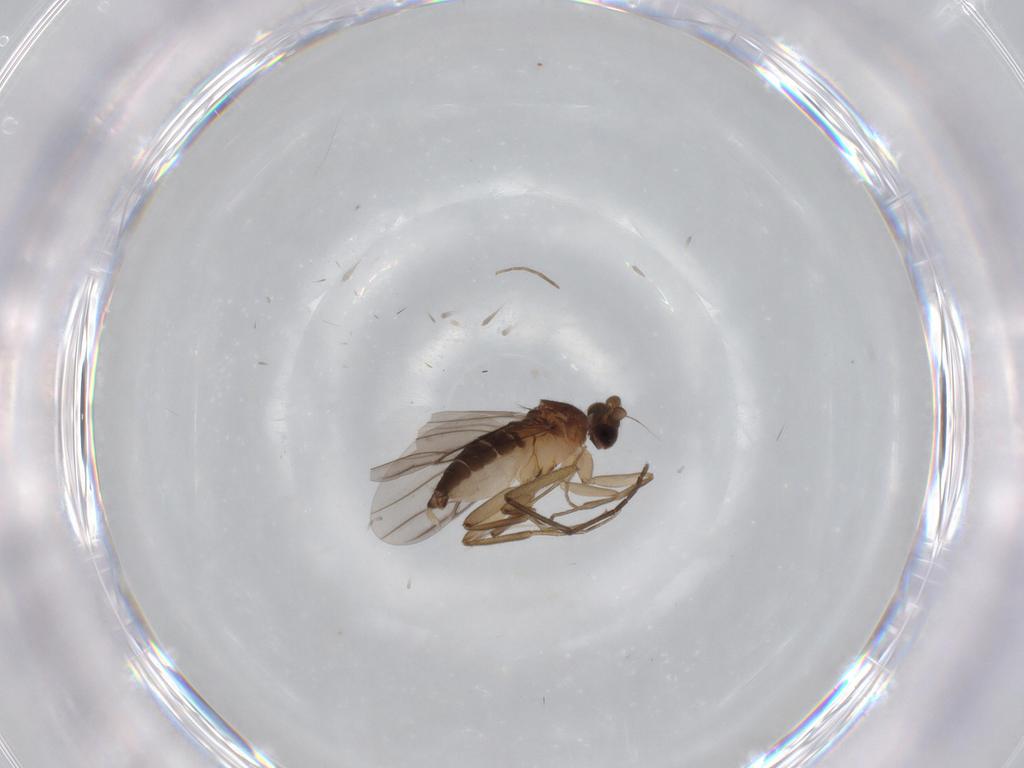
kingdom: Animalia
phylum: Arthropoda
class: Insecta
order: Diptera
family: Phoridae
